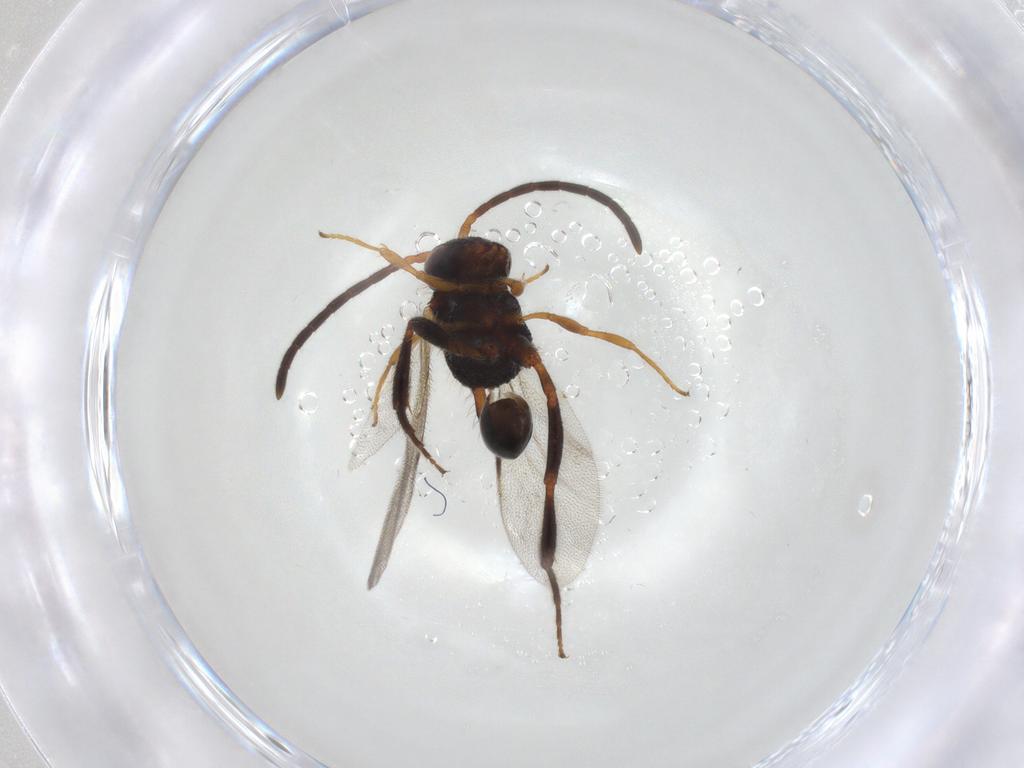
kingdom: Animalia
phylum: Arthropoda
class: Insecta
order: Hymenoptera
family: Evaniidae
